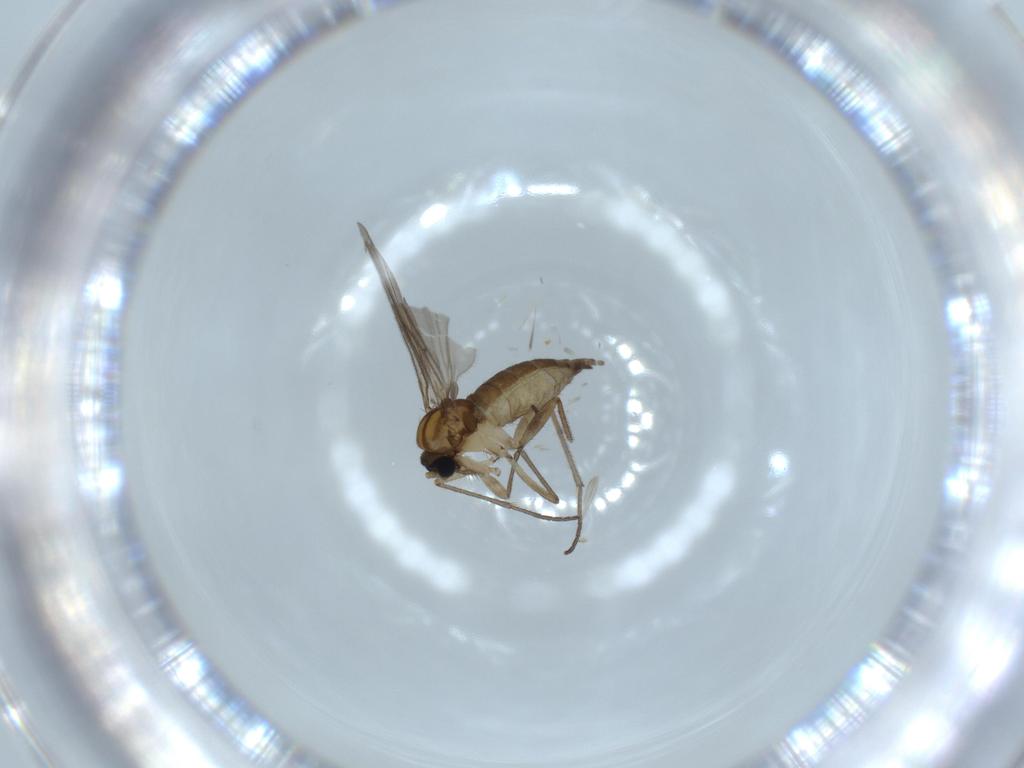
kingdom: Animalia
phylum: Arthropoda
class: Insecta
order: Diptera
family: Sciaridae
